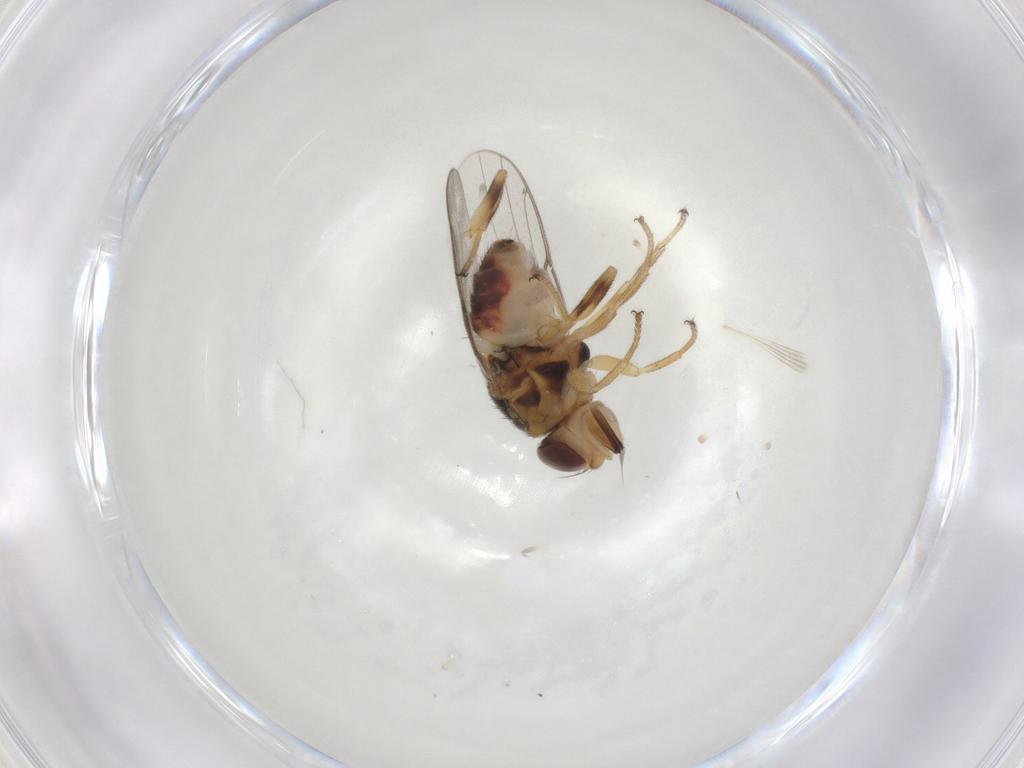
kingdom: Animalia
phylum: Arthropoda
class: Insecta
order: Diptera
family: Chloropidae
